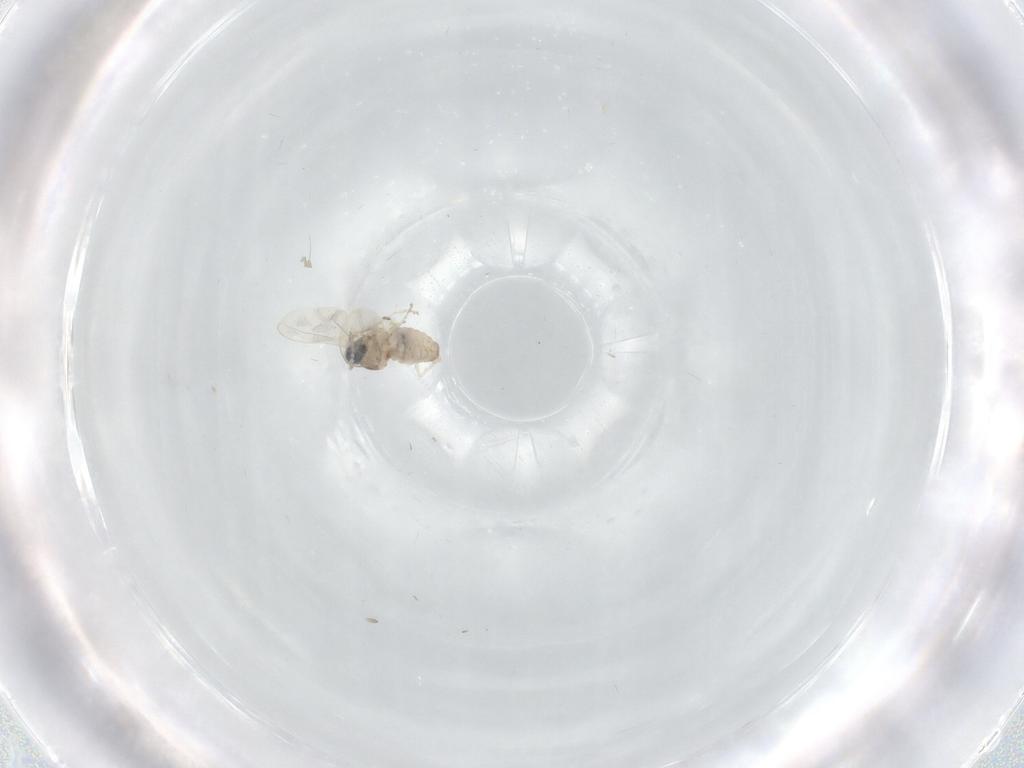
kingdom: Animalia
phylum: Arthropoda
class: Insecta
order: Diptera
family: Cecidomyiidae
